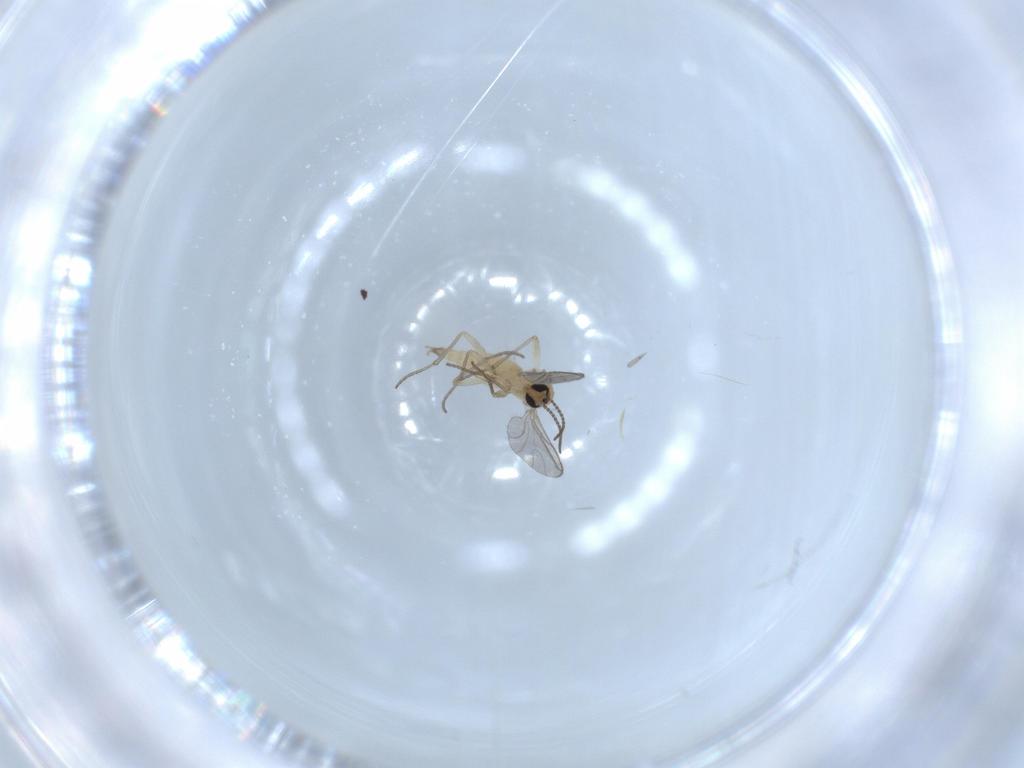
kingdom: Animalia
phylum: Arthropoda
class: Insecta
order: Diptera
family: Sciaridae
